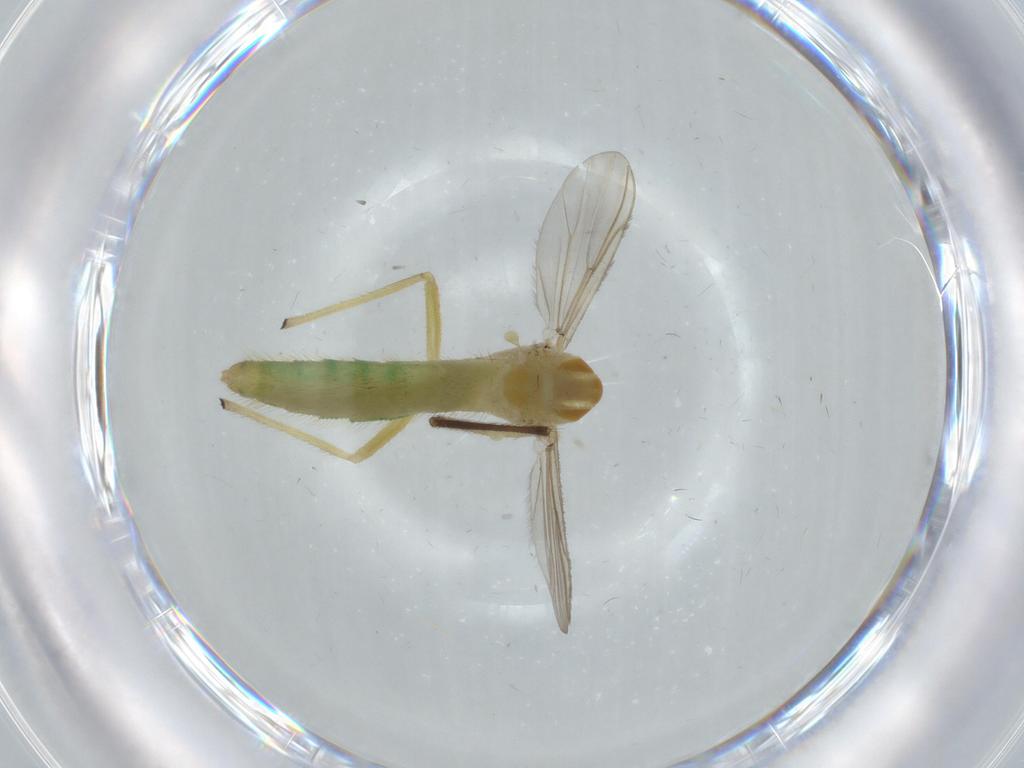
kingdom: Animalia
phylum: Arthropoda
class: Insecta
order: Diptera
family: Chironomidae
